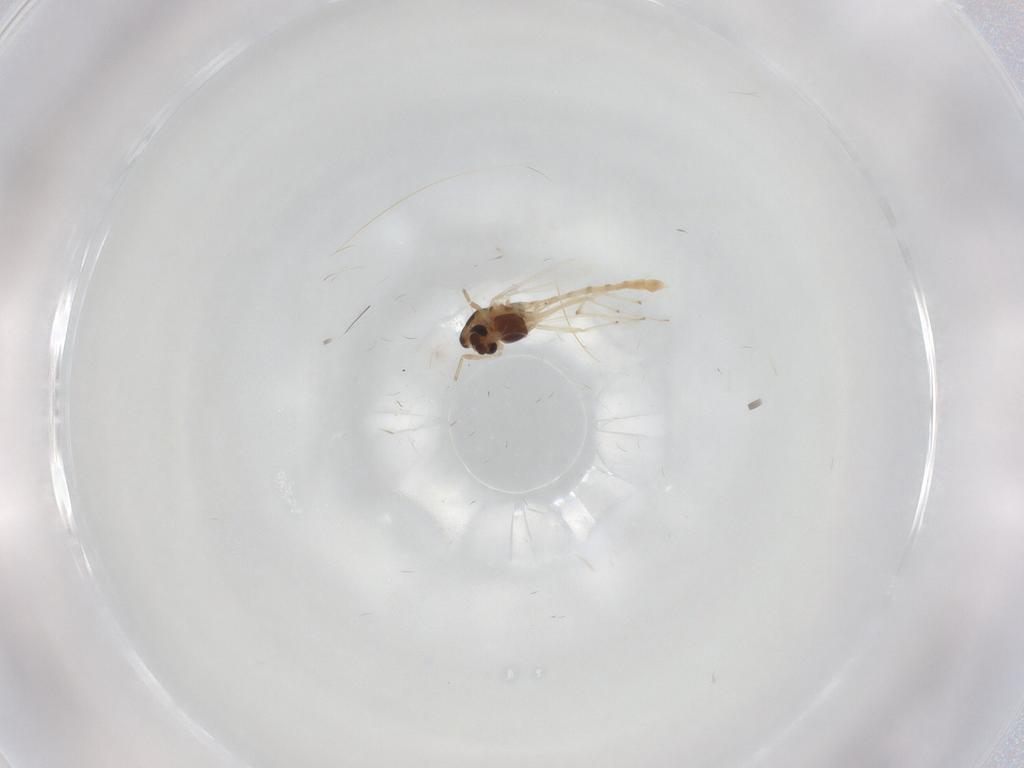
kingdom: Animalia
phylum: Arthropoda
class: Insecta
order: Diptera
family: Chironomidae
